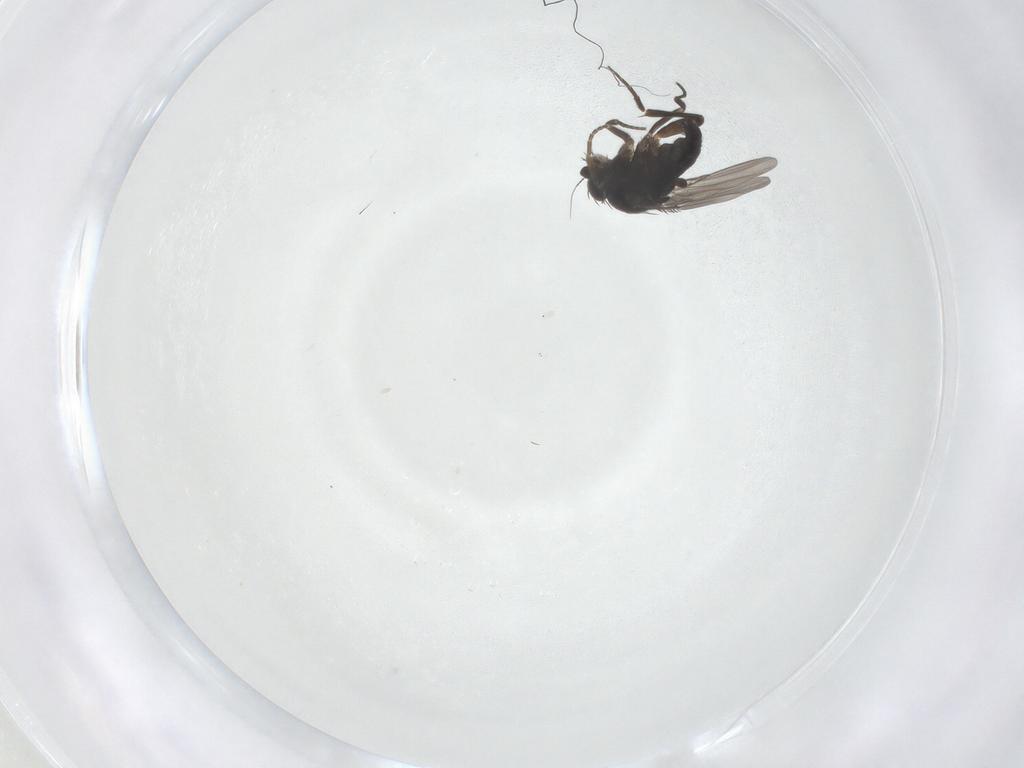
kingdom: Animalia
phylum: Arthropoda
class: Insecta
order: Diptera
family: Phoridae
